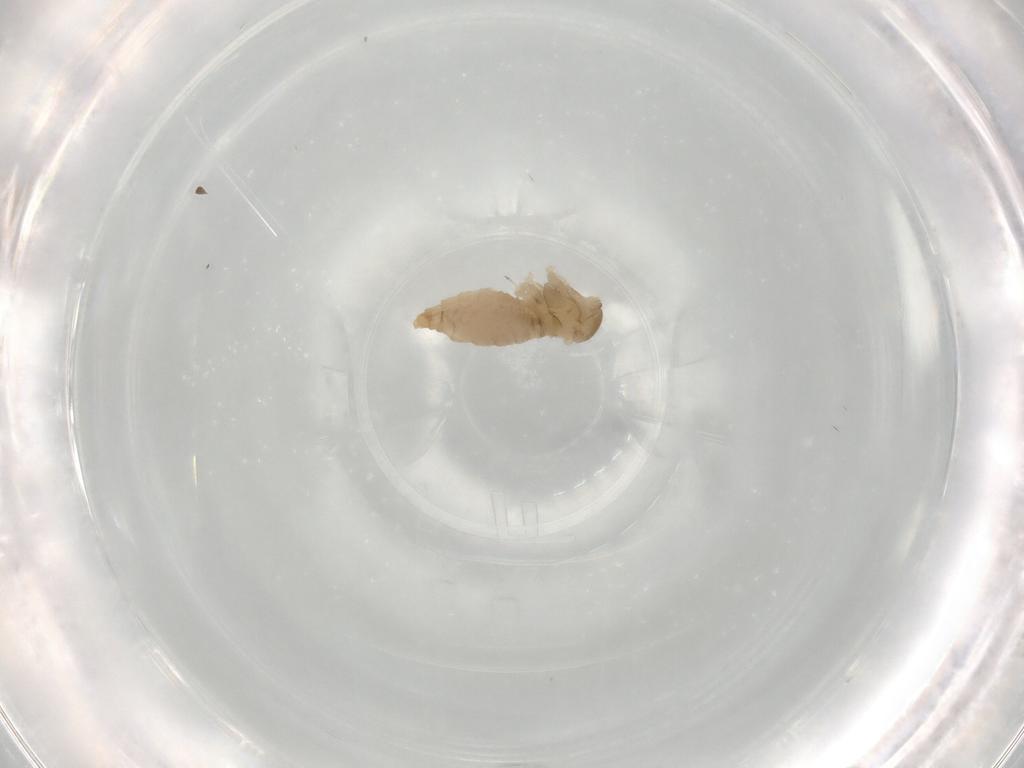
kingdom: Animalia
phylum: Arthropoda
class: Insecta
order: Diptera
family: Cecidomyiidae
